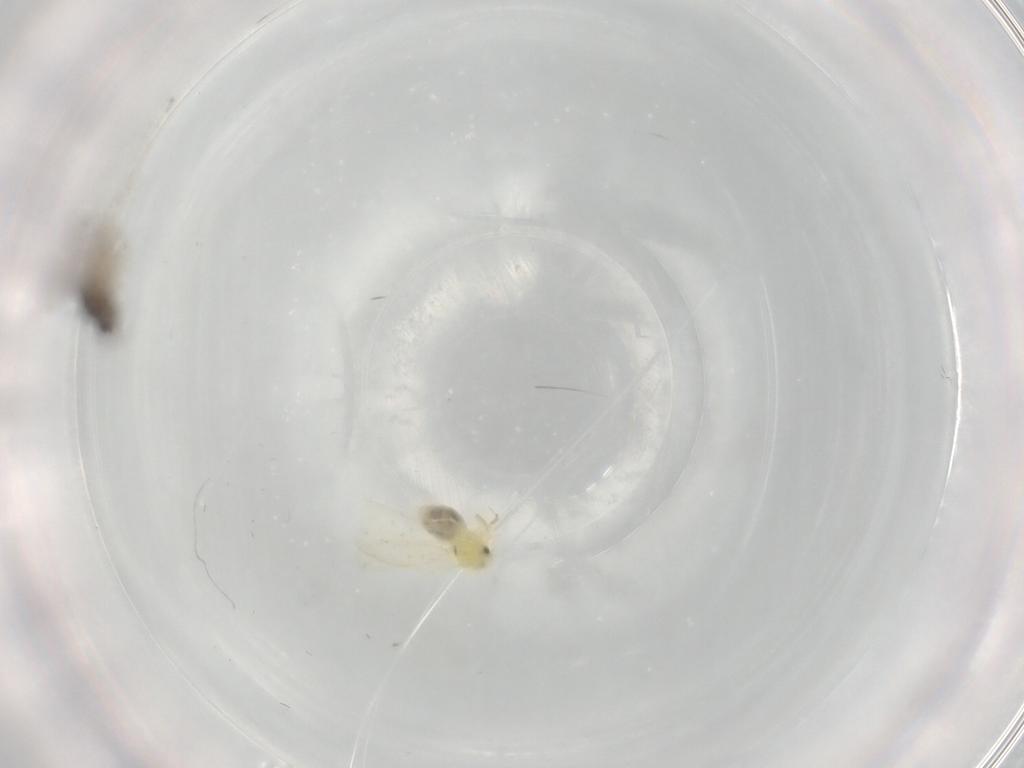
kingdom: Animalia
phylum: Arthropoda
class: Insecta
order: Diptera
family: Cecidomyiidae
